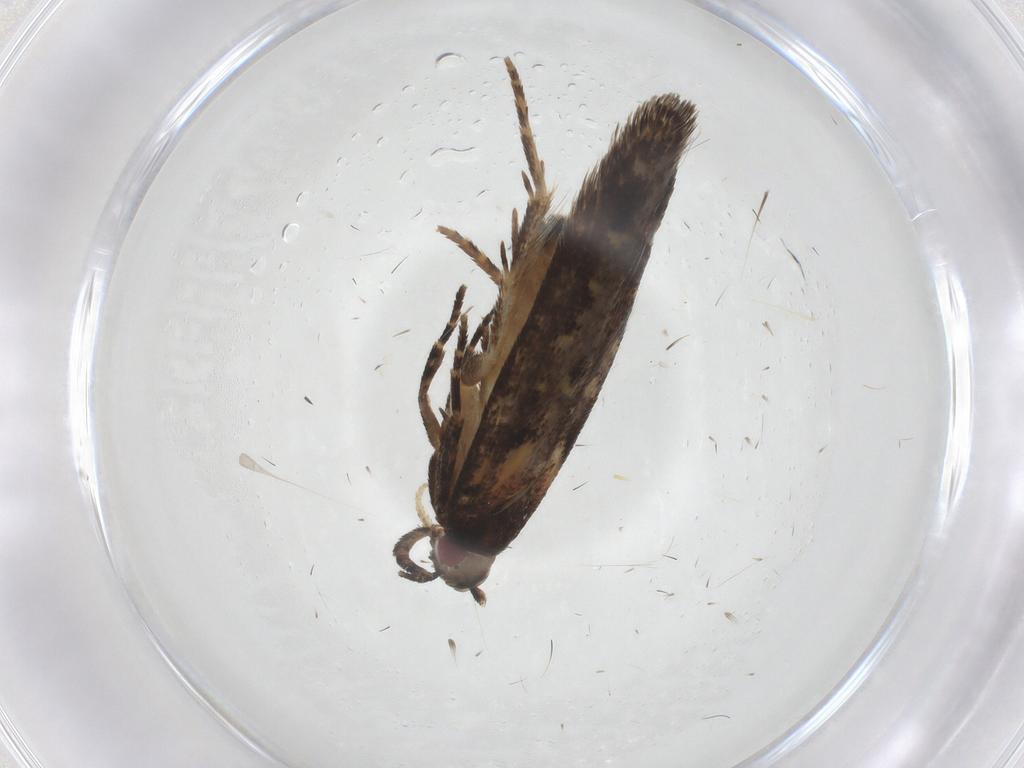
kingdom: Animalia
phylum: Arthropoda
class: Insecta
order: Lepidoptera
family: Elachistidae
